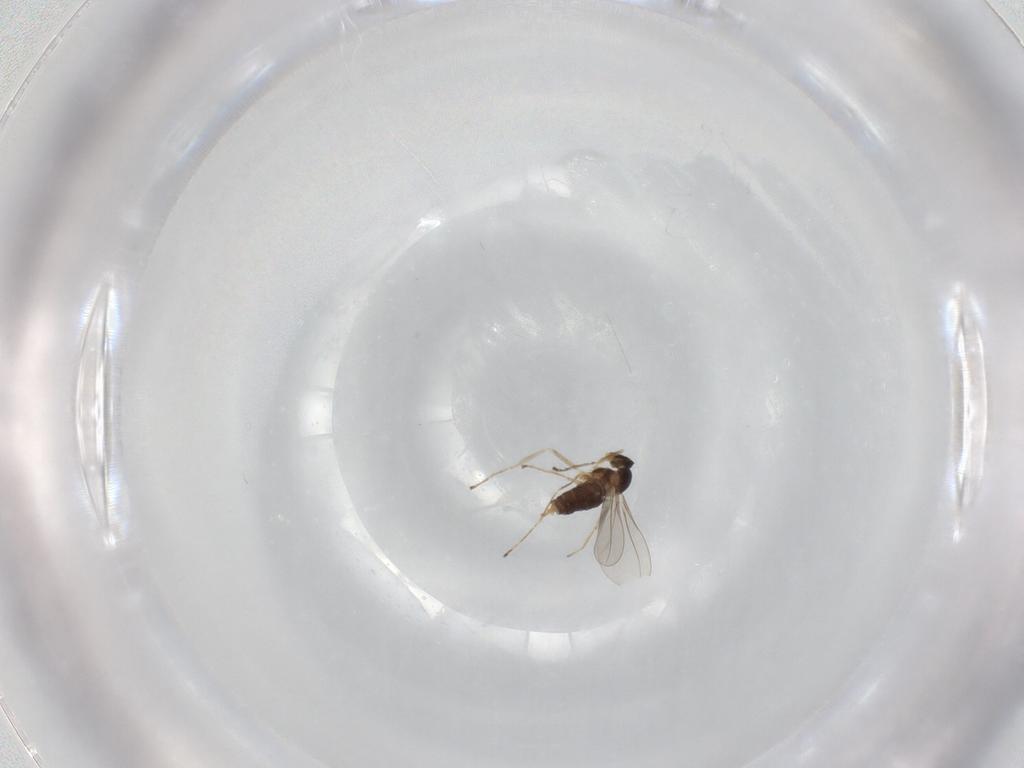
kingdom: Animalia
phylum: Arthropoda
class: Insecta
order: Diptera
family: Cecidomyiidae
